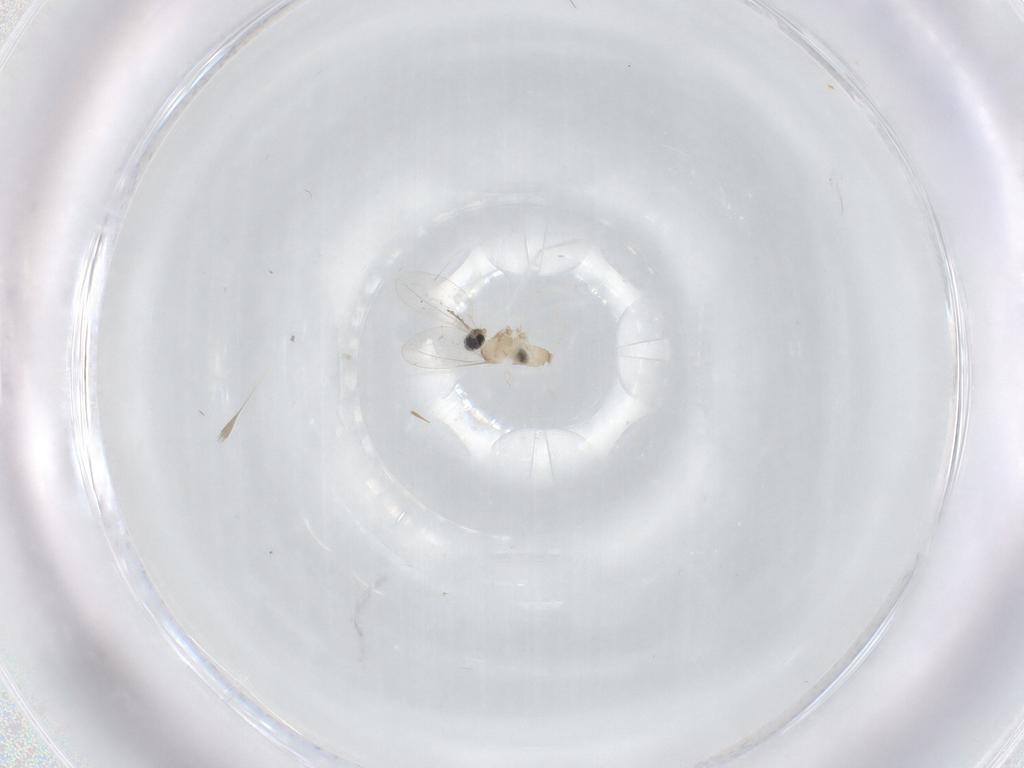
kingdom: Animalia
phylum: Arthropoda
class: Insecta
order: Diptera
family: Cecidomyiidae
